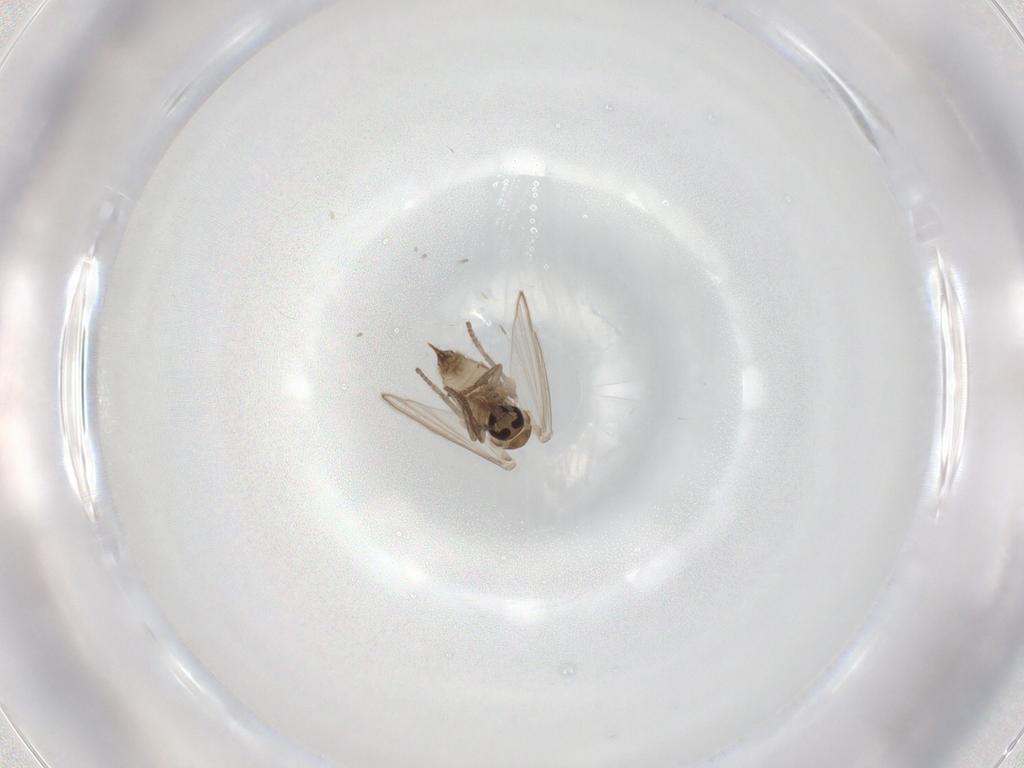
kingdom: Animalia
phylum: Arthropoda
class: Insecta
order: Diptera
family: Psychodidae
